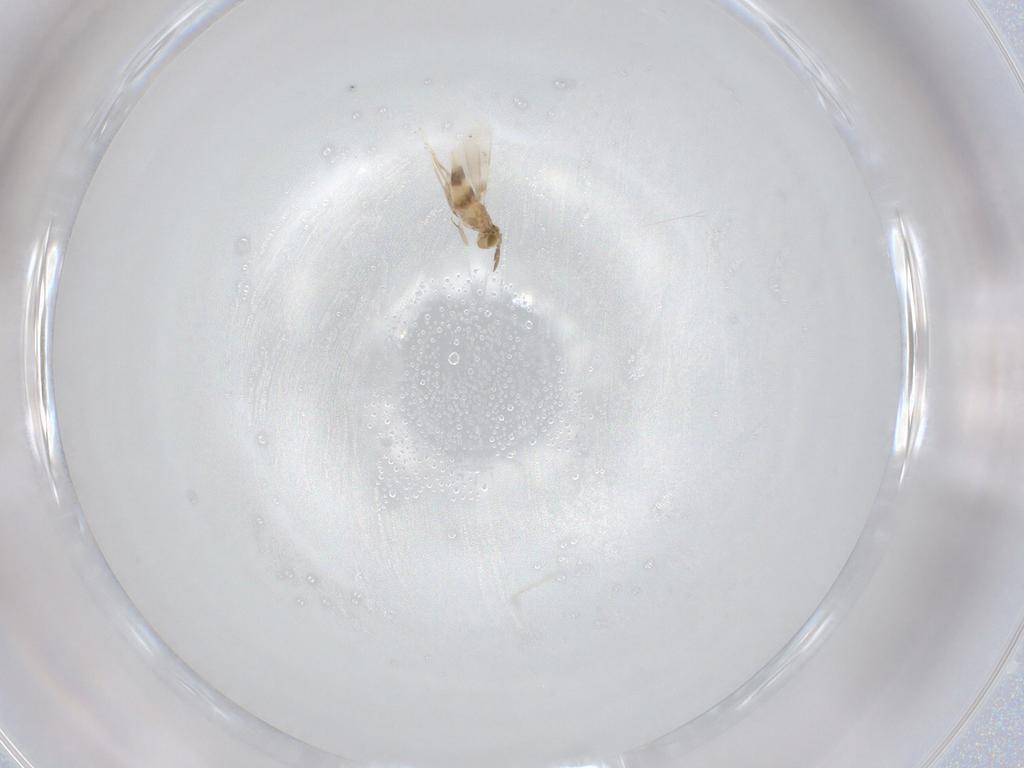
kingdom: Animalia
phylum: Arthropoda
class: Insecta
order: Hymenoptera
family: Aphelinidae
